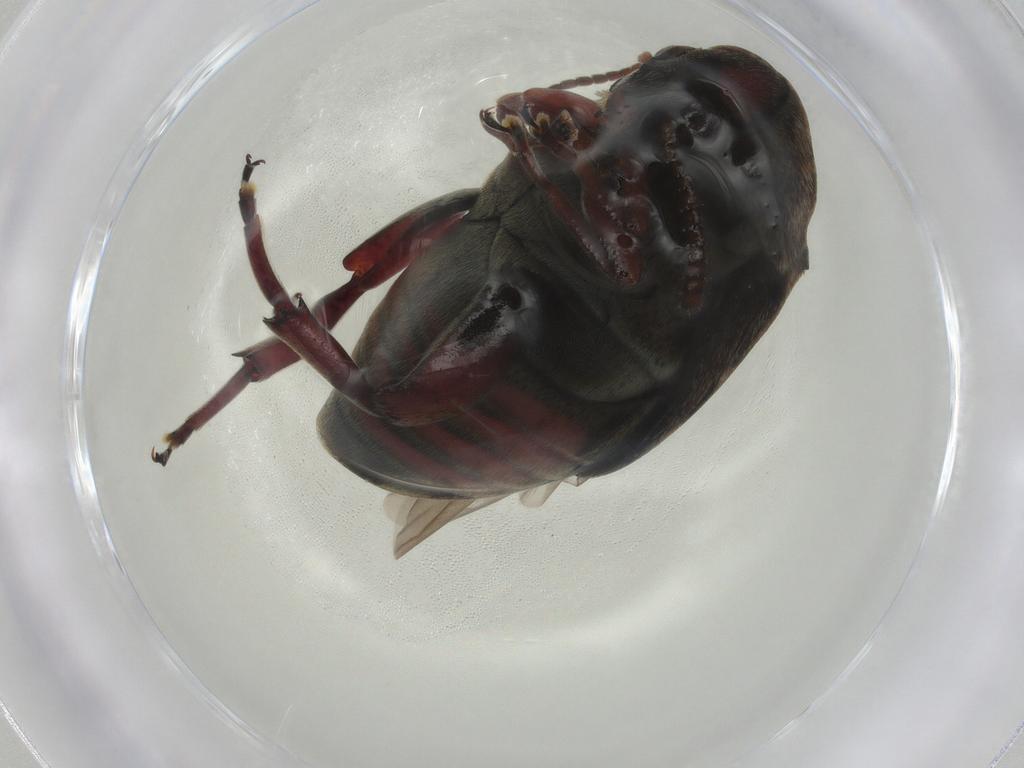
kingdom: Animalia
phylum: Arthropoda
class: Insecta
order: Diptera
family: Ceratopogonidae
